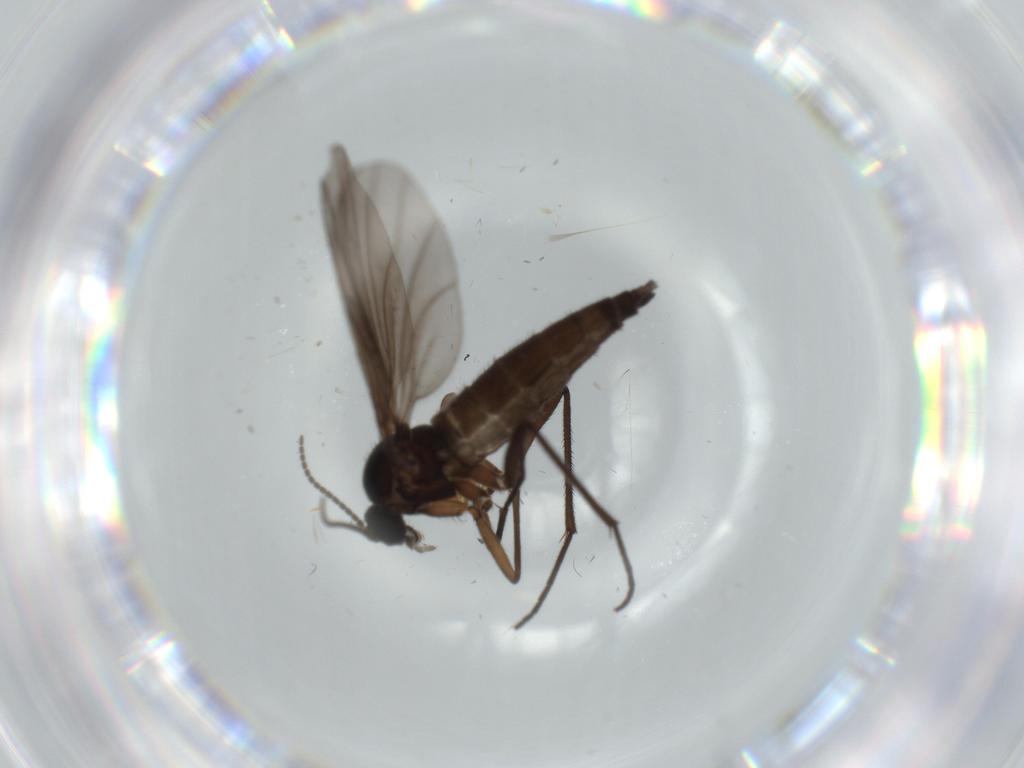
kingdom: Animalia
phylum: Arthropoda
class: Insecta
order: Diptera
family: Sciaridae
